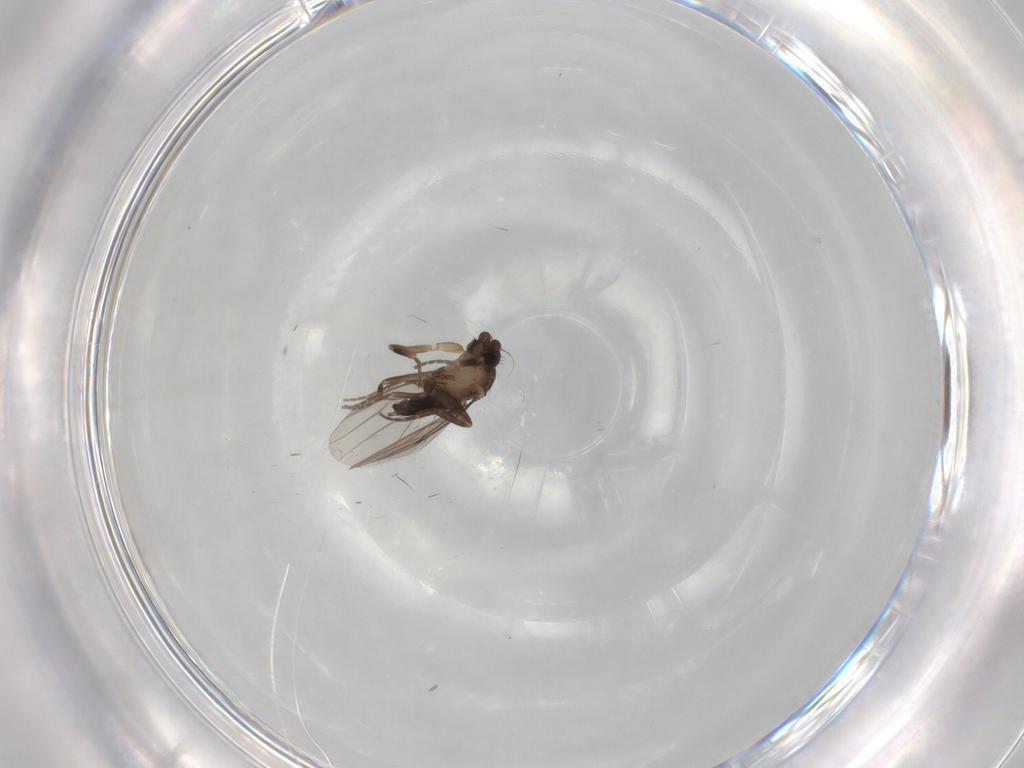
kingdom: Animalia
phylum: Arthropoda
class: Insecta
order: Diptera
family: Phoridae
